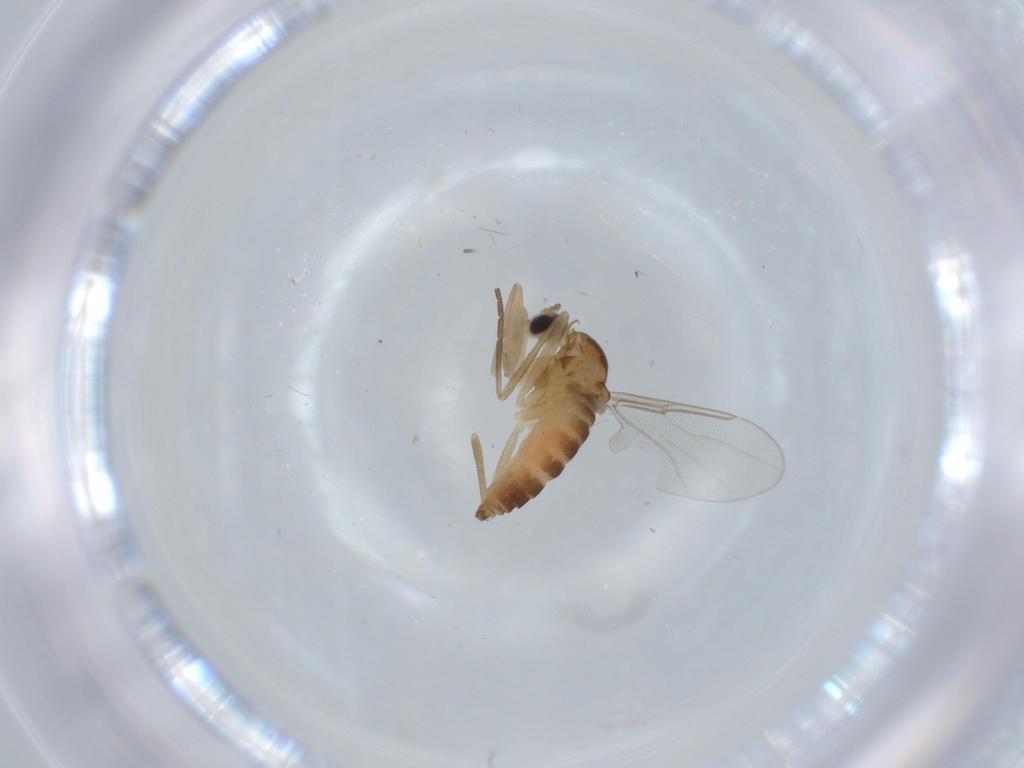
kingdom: Animalia
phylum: Arthropoda
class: Insecta
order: Diptera
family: Cecidomyiidae
